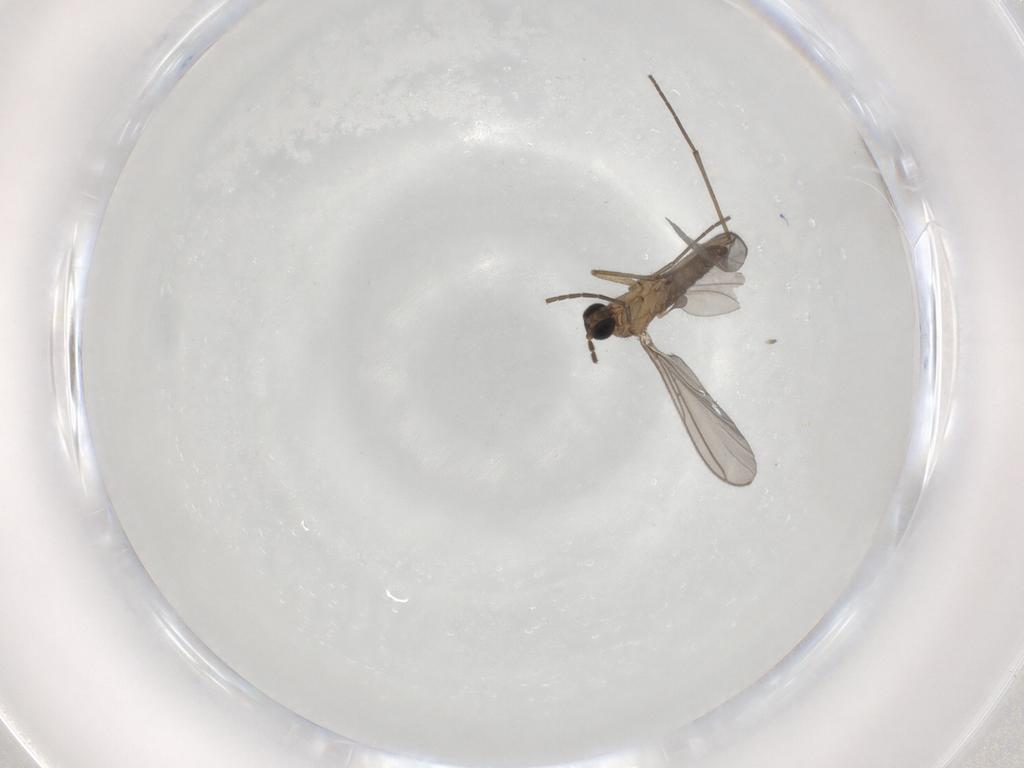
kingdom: Animalia
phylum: Arthropoda
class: Insecta
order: Diptera
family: Sciaridae
